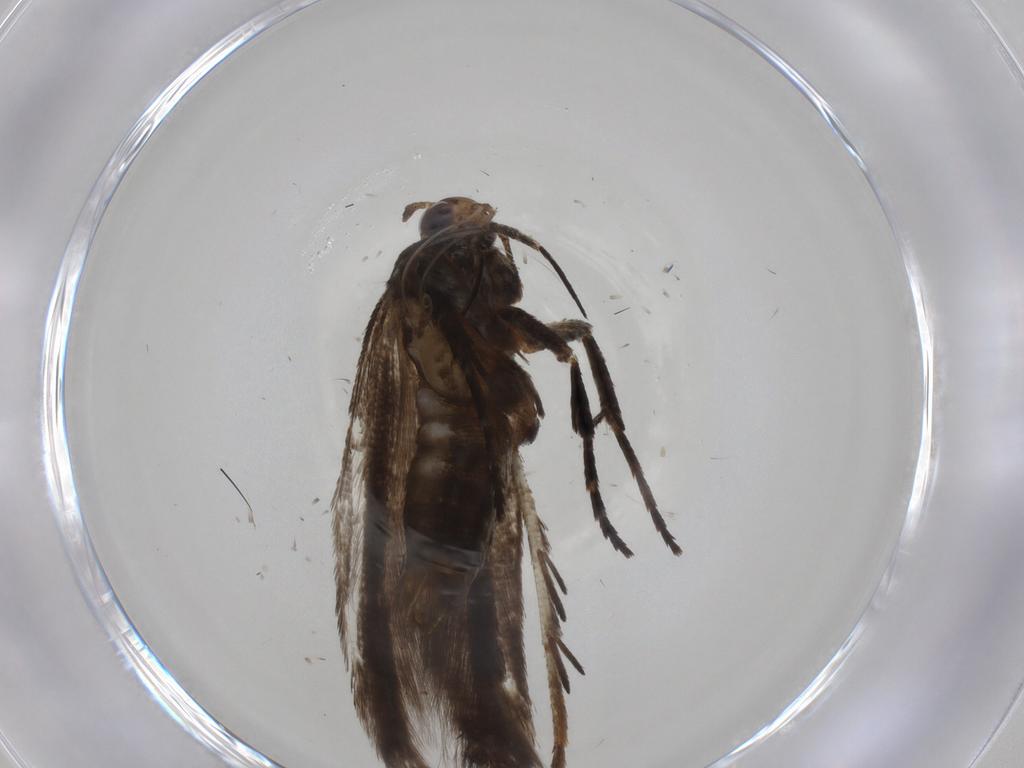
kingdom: Animalia
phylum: Arthropoda
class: Insecta
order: Lepidoptera
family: Gelechiidae
